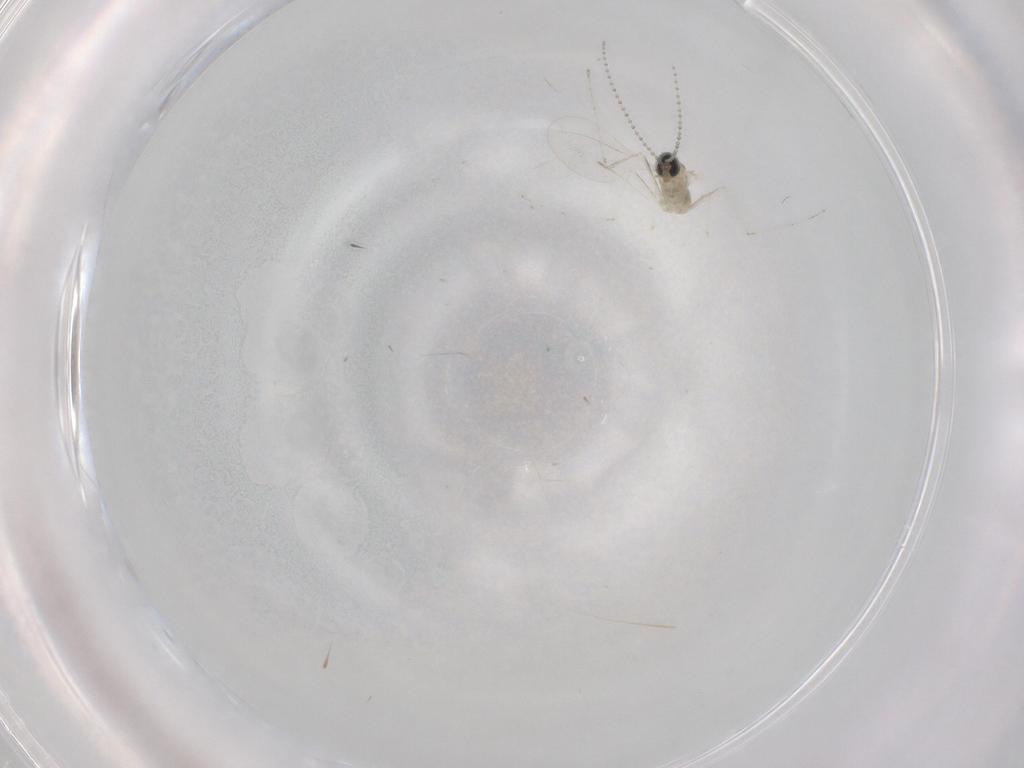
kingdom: Animalia
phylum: Arthropoda
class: Insecta
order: Diptera
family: Cecidomyiidae
